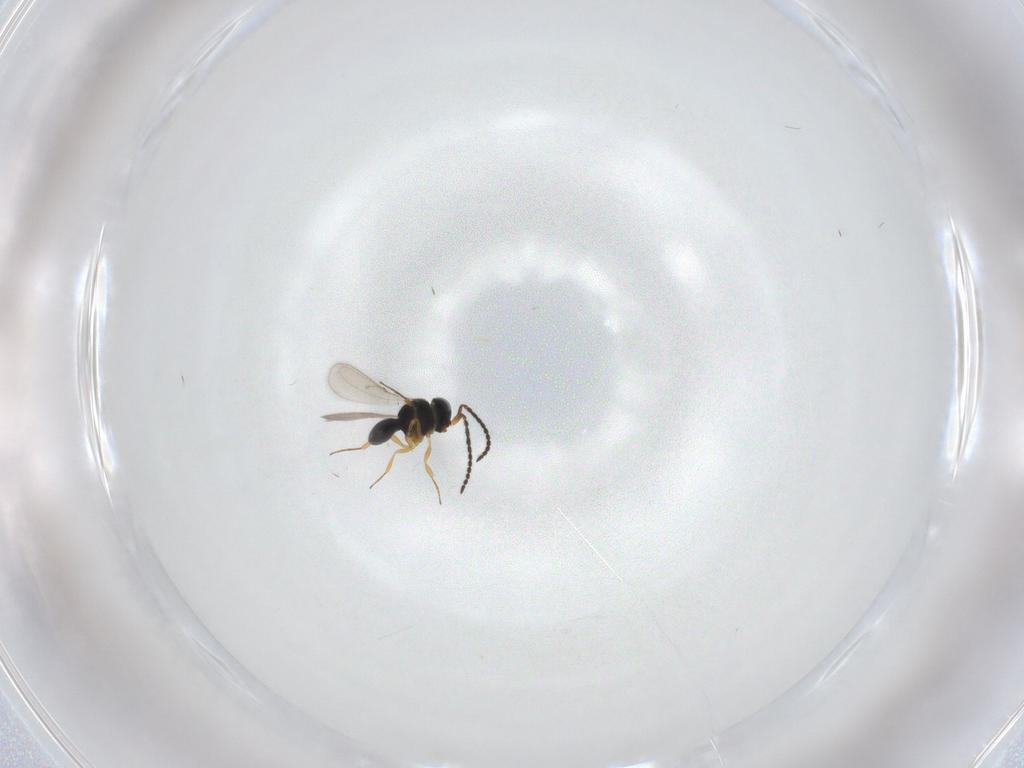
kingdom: Animalia
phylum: Arthropoda
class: Insecta
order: Hymenoptera
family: Scelionidae
